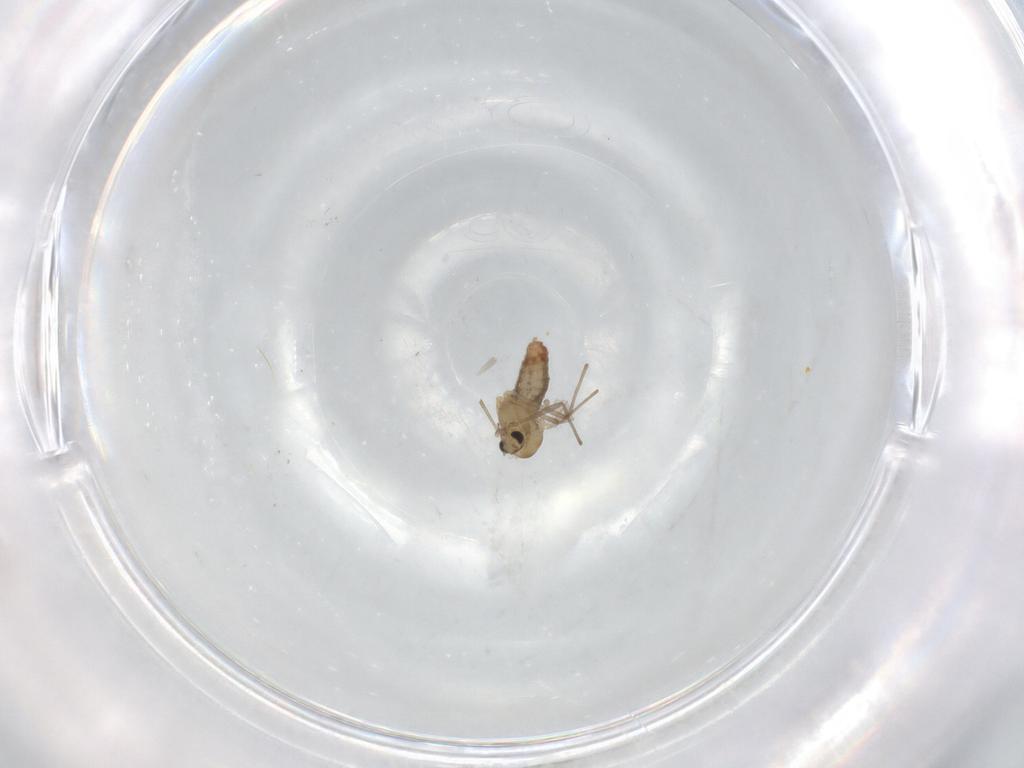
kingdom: Animalia
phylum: Arthropoda
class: Insecta
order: Diptera
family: Chironomidae
